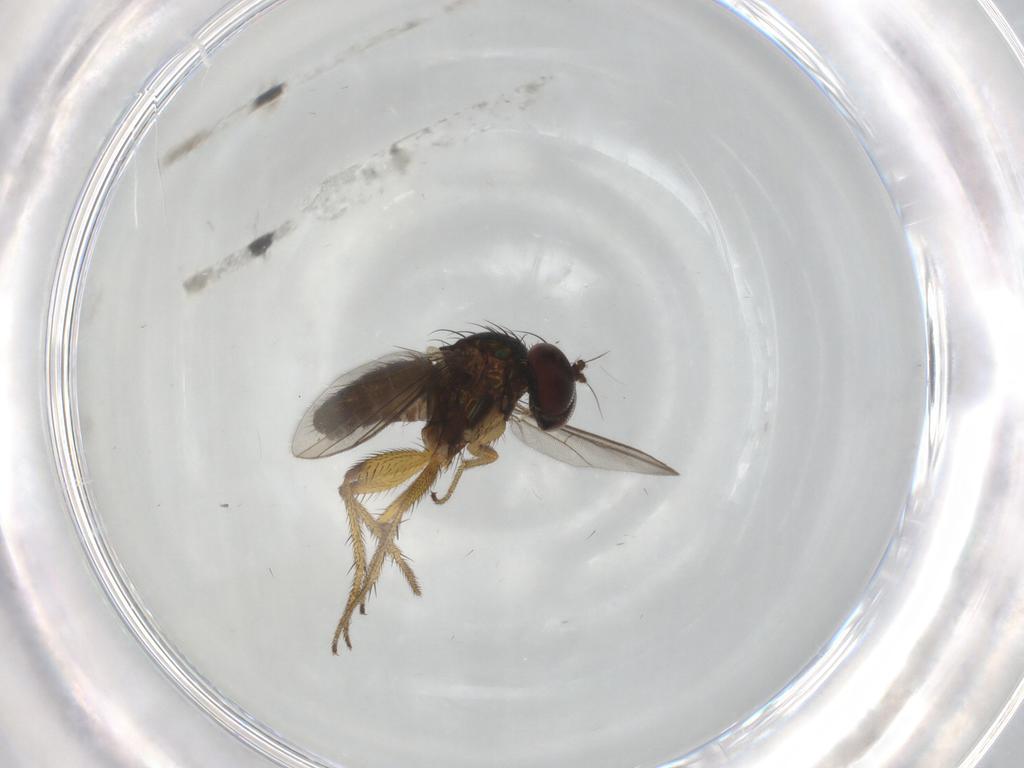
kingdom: Animalia
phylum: Arthropoda
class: Insecta
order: Diptera
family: Dolichopodidae
